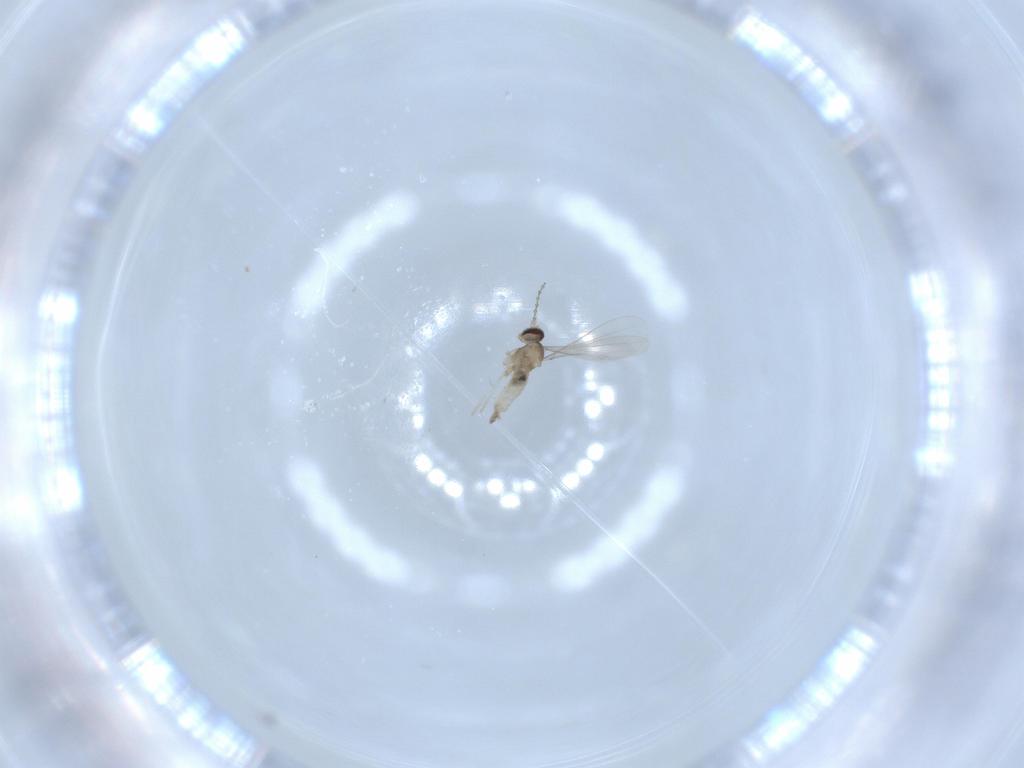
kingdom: Animalia
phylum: Arthropoda
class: Insecta
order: Diptera
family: Cecidomyiidae
